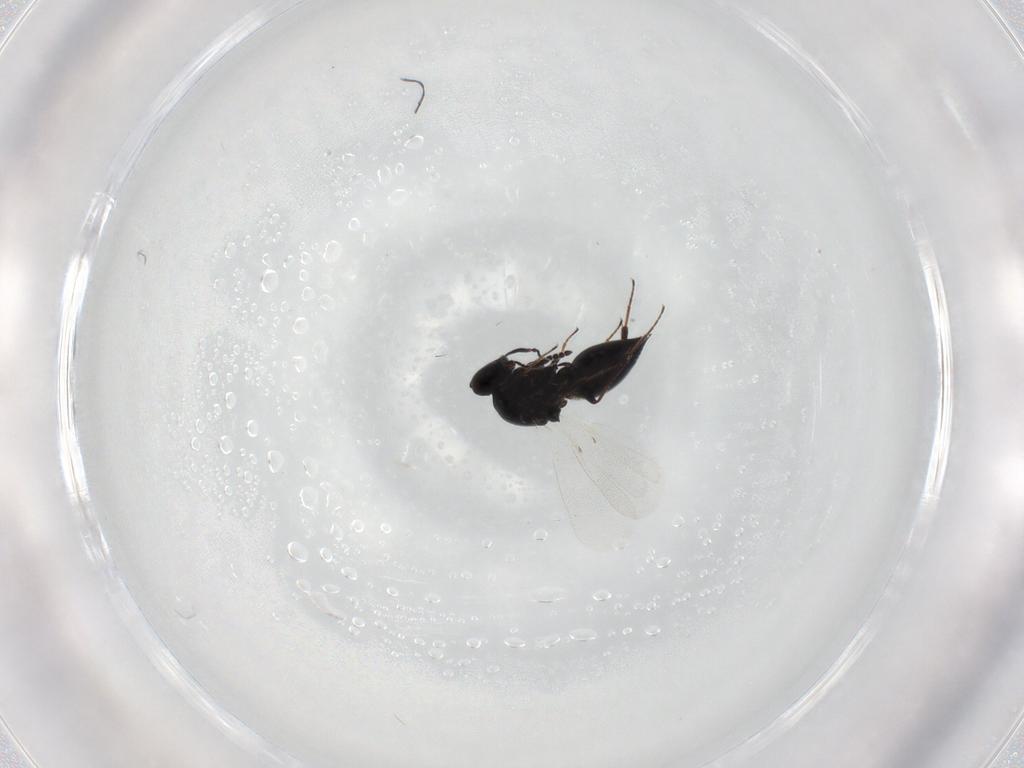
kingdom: Animalia
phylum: Arthropoda
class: Insecta
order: Hymenoptera
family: Platygastridae
